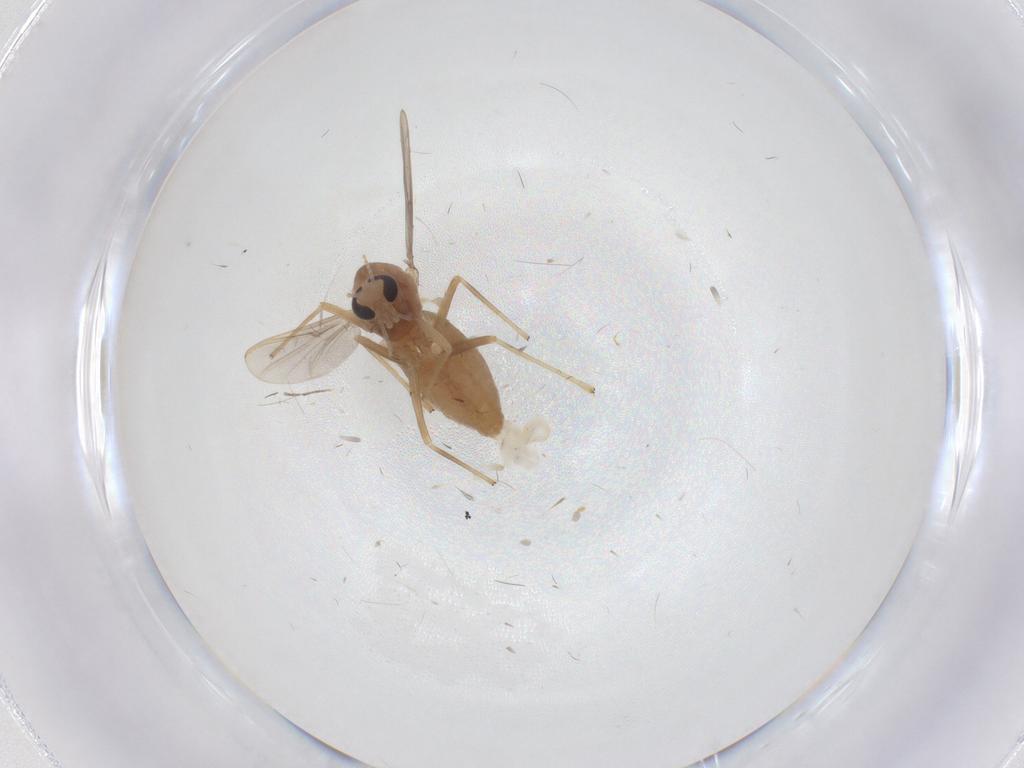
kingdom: Animalia
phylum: Arthropoda
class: Insecta
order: Diptera
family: Chironomidae
